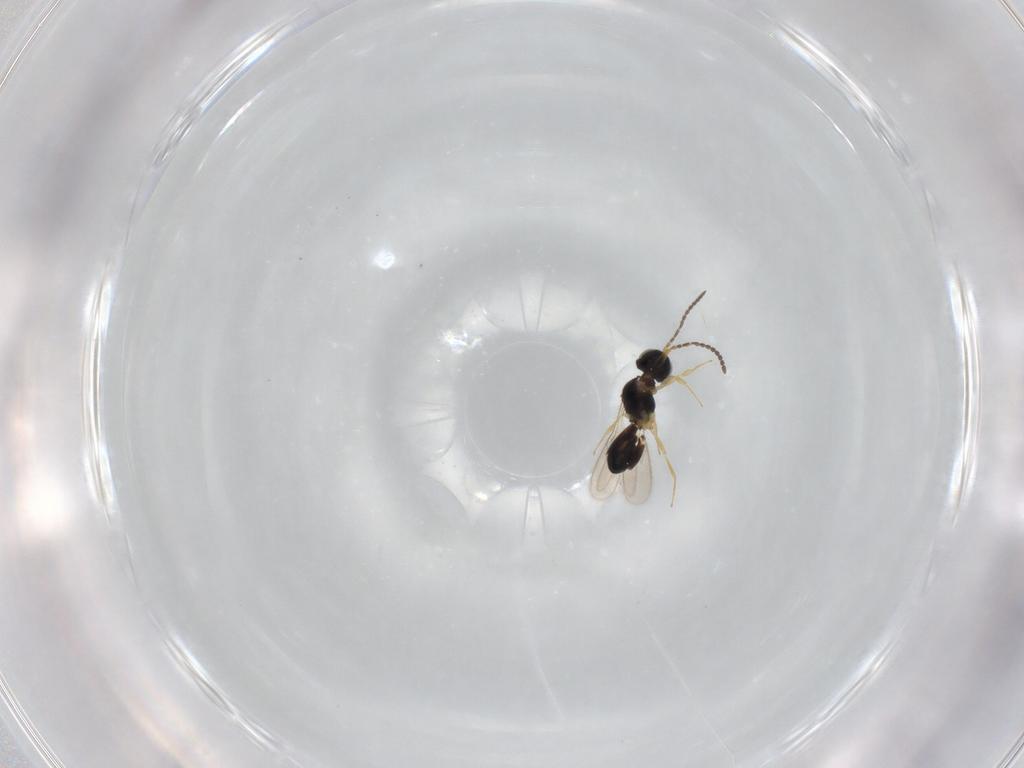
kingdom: Animalia
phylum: Arthropoda
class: Insecta
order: Hymenoptera
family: Scelionidae
